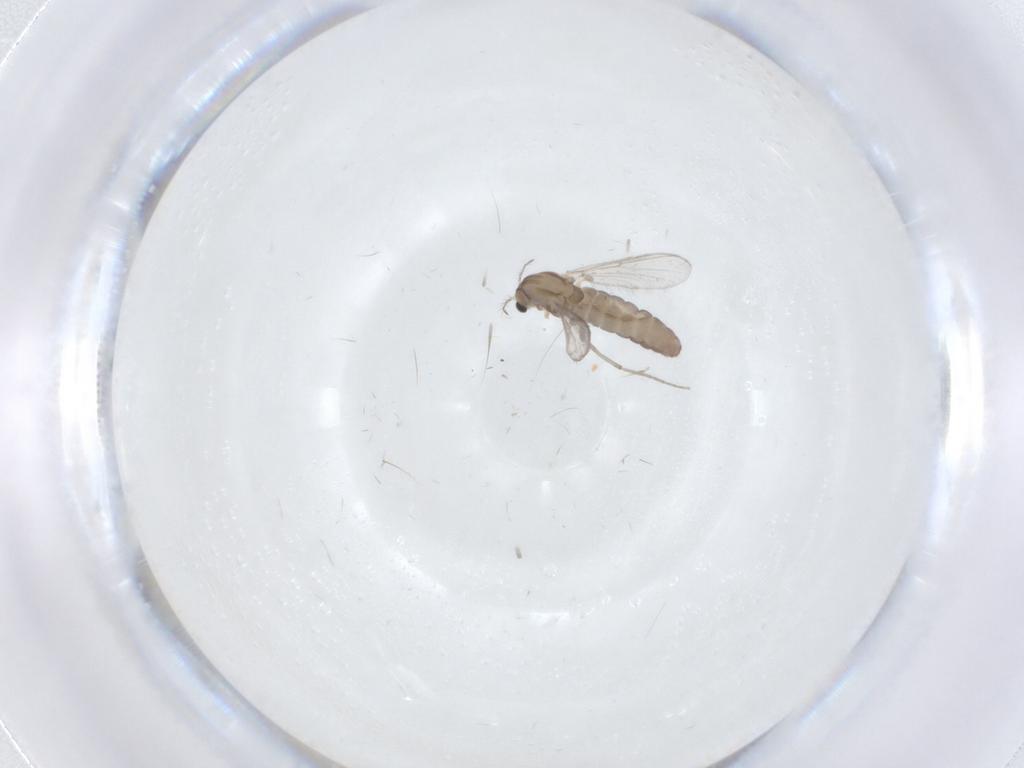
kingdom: Animalia
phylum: Arthropoda
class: Insecta
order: Diptera
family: Chironomidae
